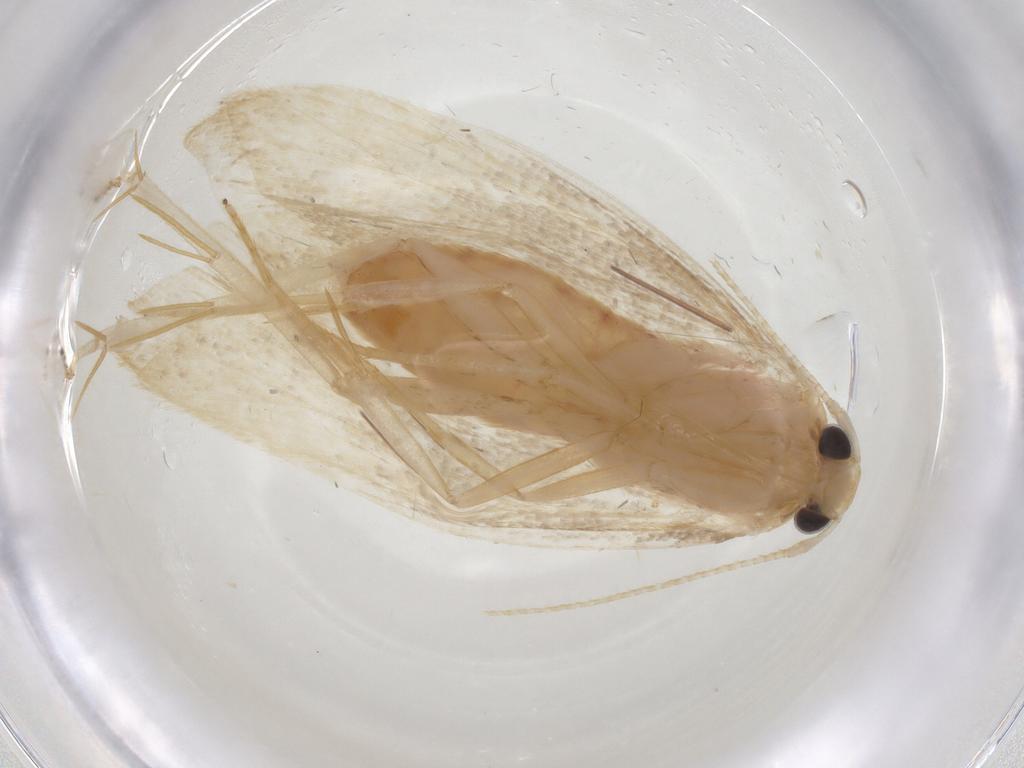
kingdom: Animalia
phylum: Arthropoda
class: Insecta
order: Lepidoptera
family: Lecithoceridae
